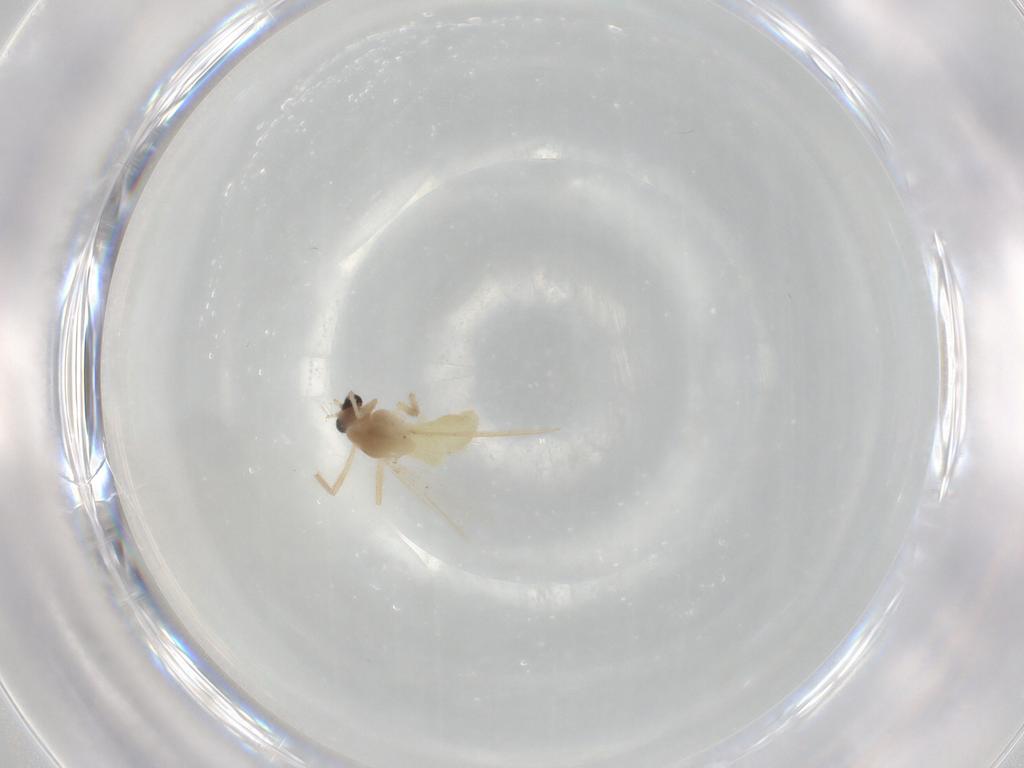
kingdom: Animalia
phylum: Arthropoda
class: Insecta
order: Diptera
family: Chironomidae
